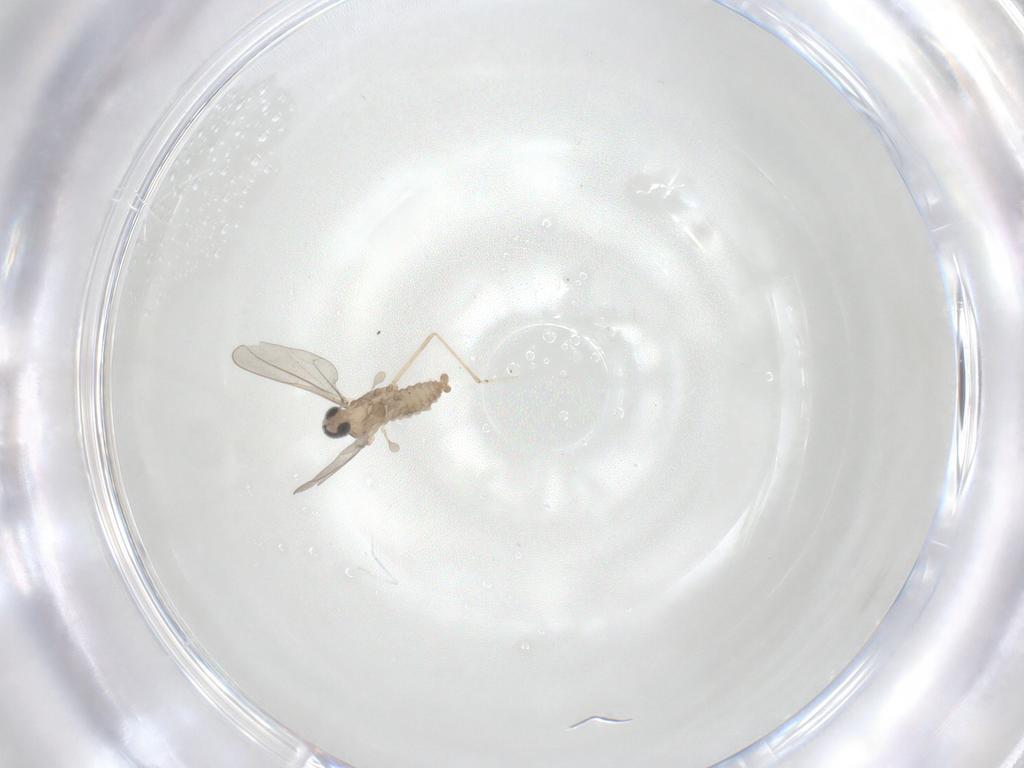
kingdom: Animalia
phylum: Arthropoda
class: Insecta
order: Diptera
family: Cecidomyiidae
